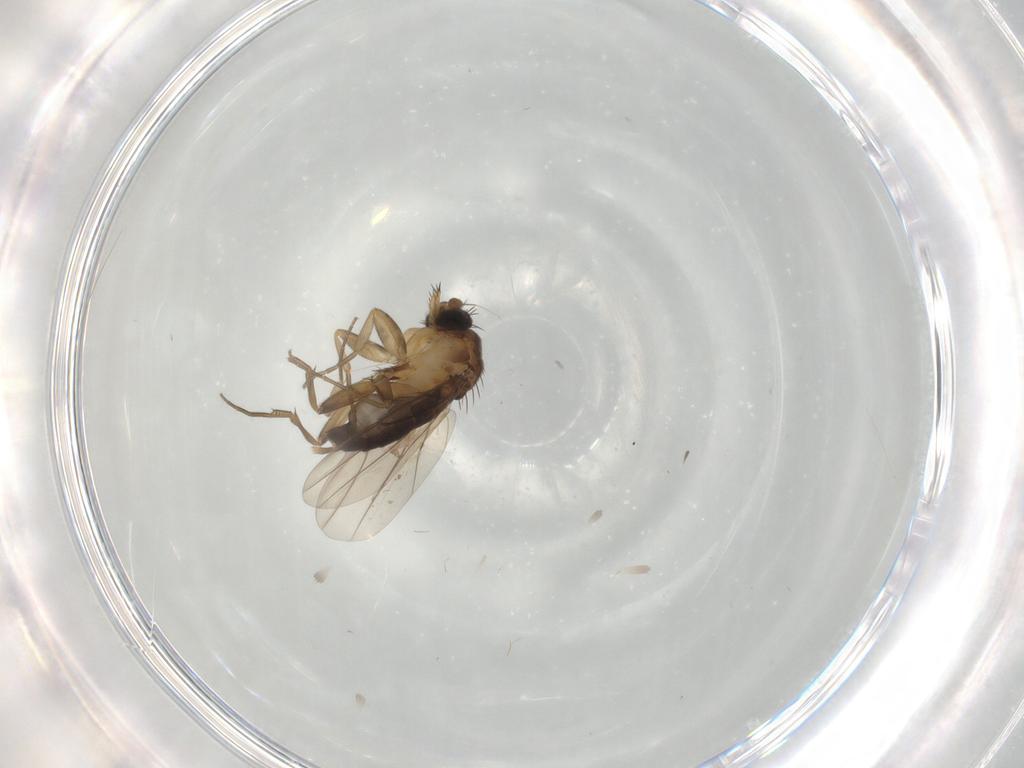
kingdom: Animalia
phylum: Arthropoda
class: Insecta
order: Diptera
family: Phoridae
